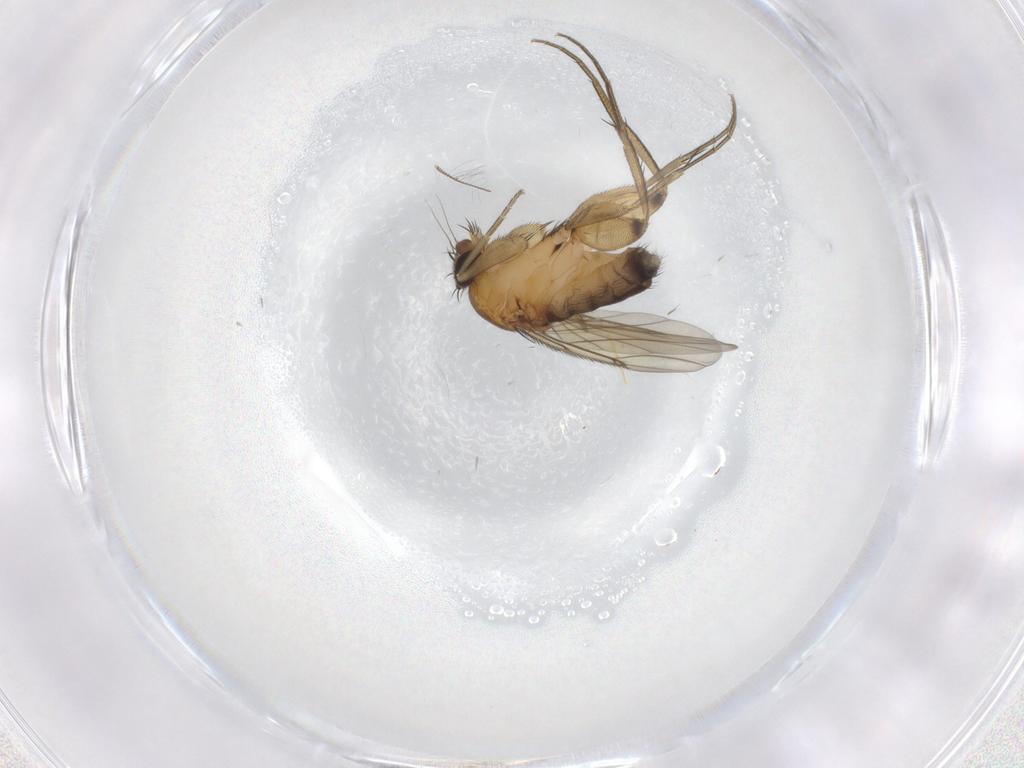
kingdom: Animalia
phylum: Arthropoda
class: Insecta
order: Diptera
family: Phoridae
